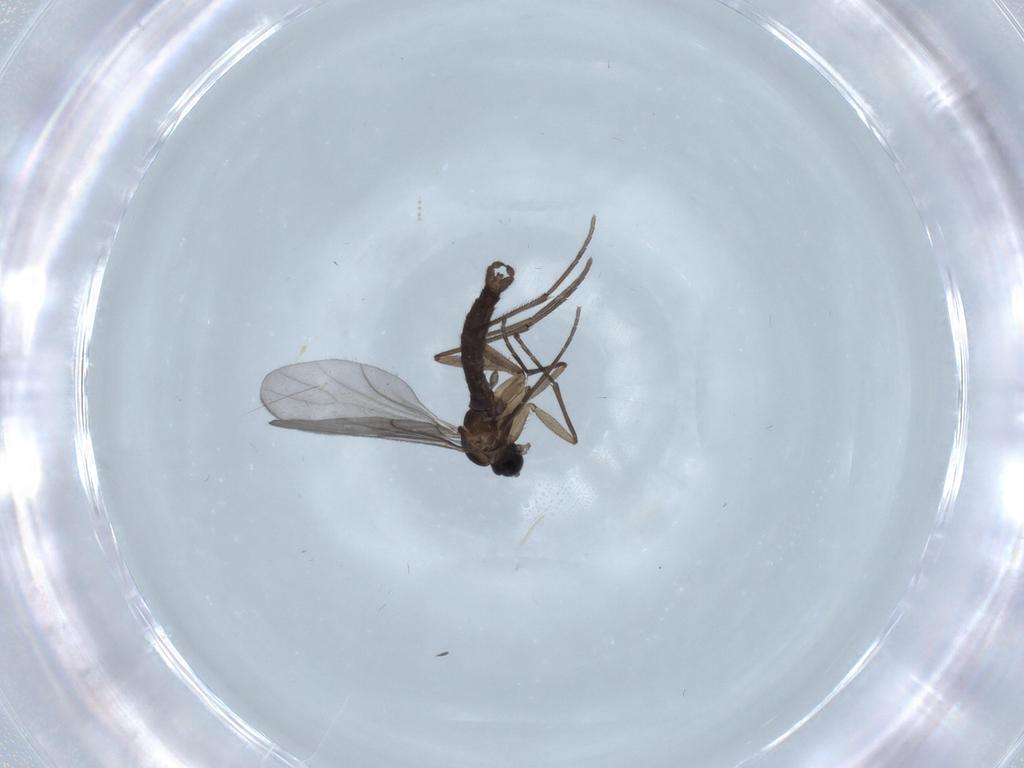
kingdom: Animalia
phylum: Arthropoda
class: Insecta
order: Diptera
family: Sciaridae
